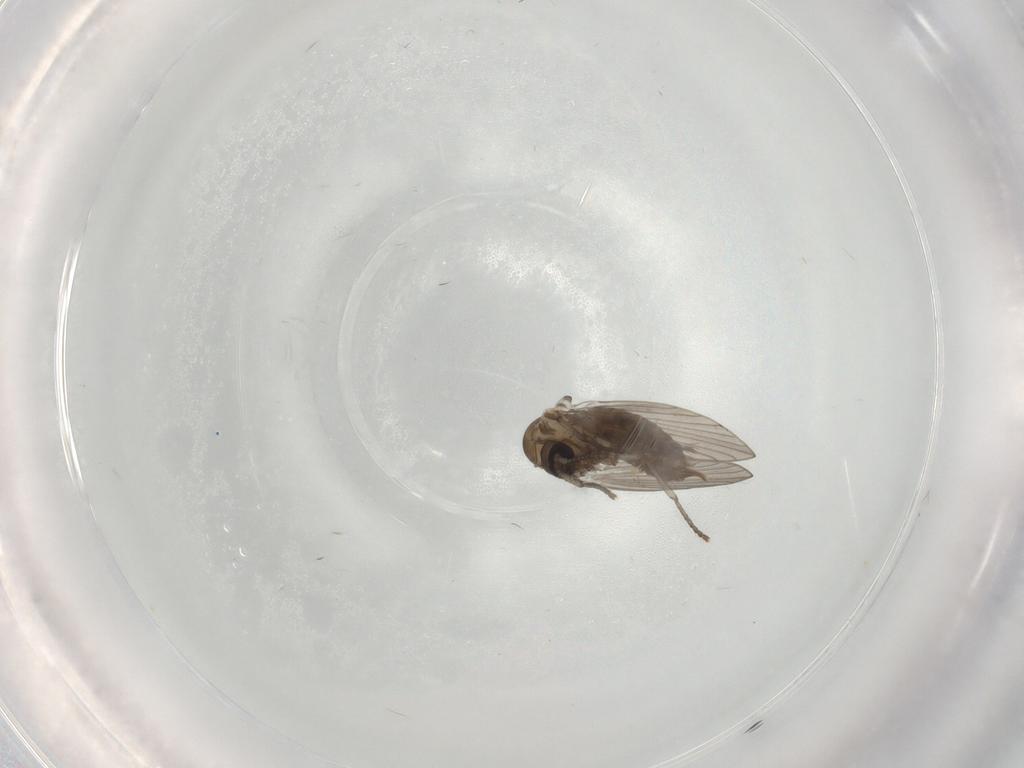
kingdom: Animalia
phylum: Arthropoda
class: Insecta
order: Diptera
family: Psychodidae
